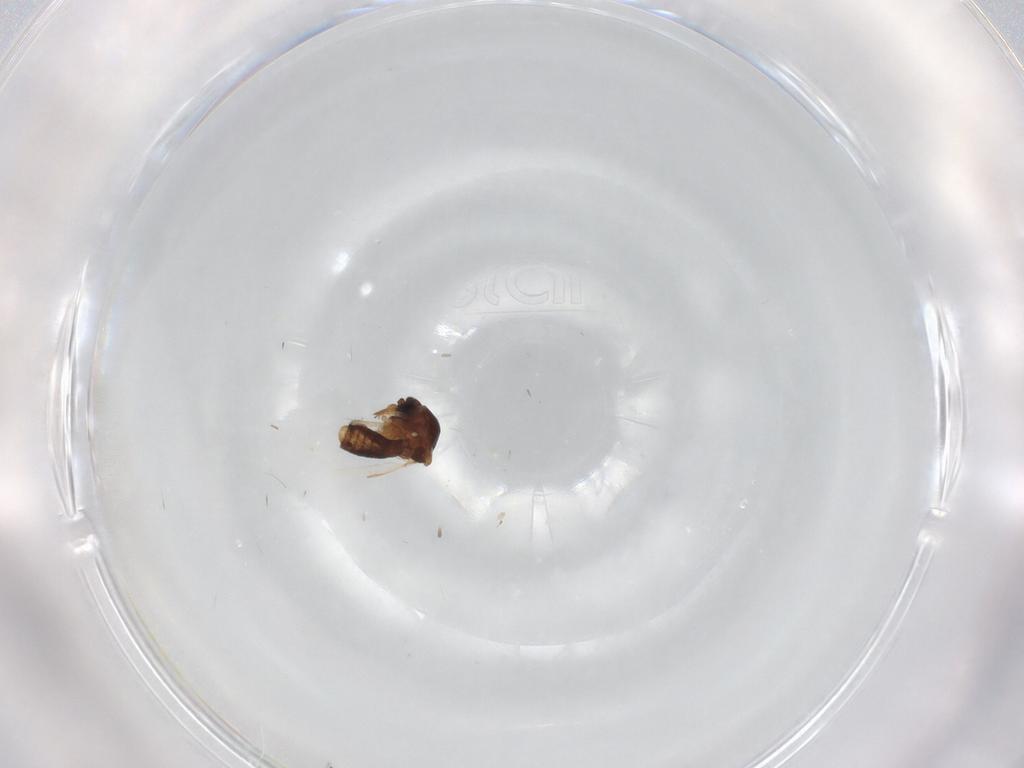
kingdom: Animalia
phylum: Arthropoda
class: Insecta
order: Diptera
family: Ceratopogonidae
